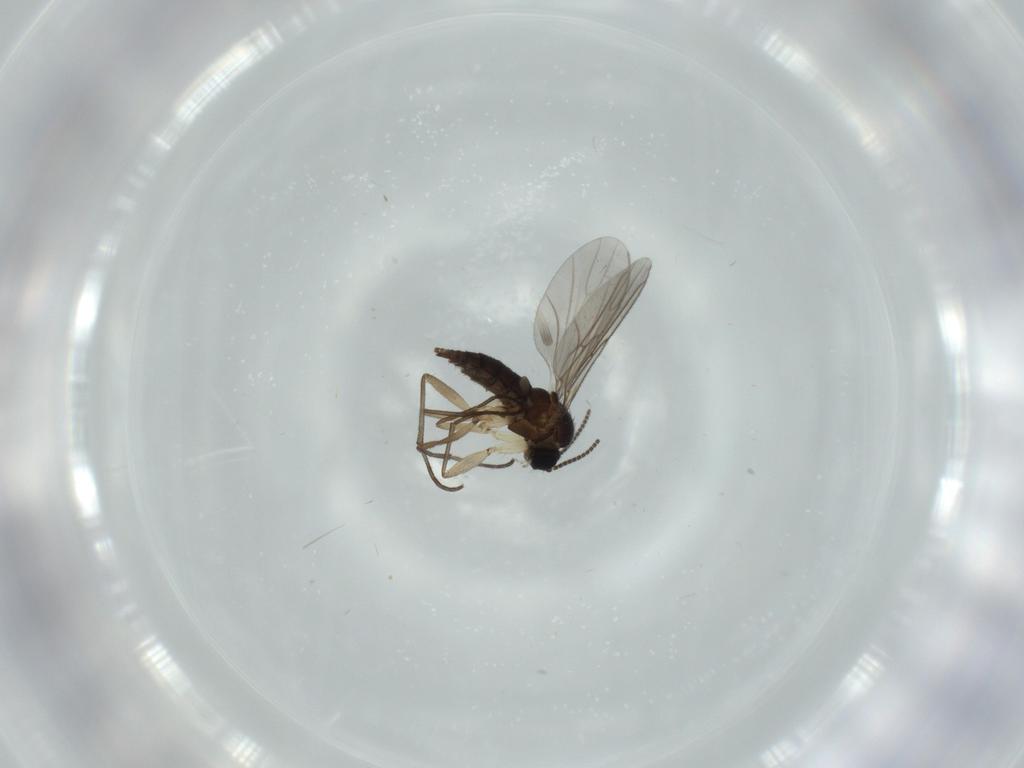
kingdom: Animalia
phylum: Arthropoda
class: Insecta
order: Diptera
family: Sciaridae
